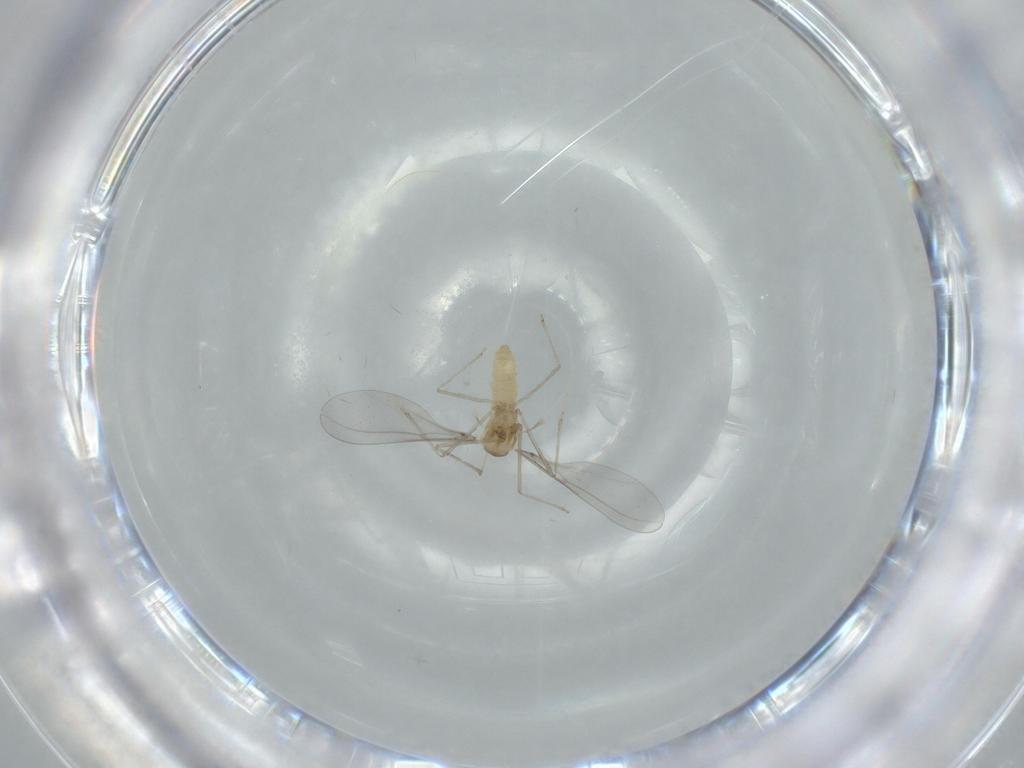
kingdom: Animalia
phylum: Arthropoda
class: Insecta
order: Diptera
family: Cecidomyiidae
